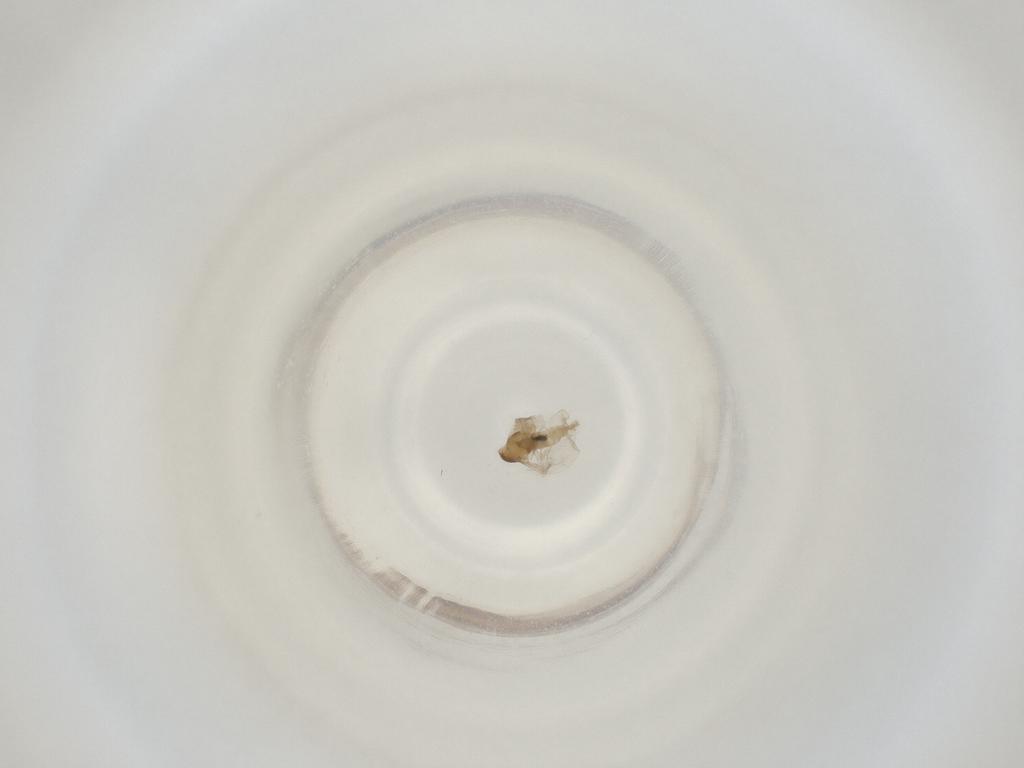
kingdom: Animalia
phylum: Arthropoda
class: Insecta
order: Diptera
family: Cecidomyiidae
